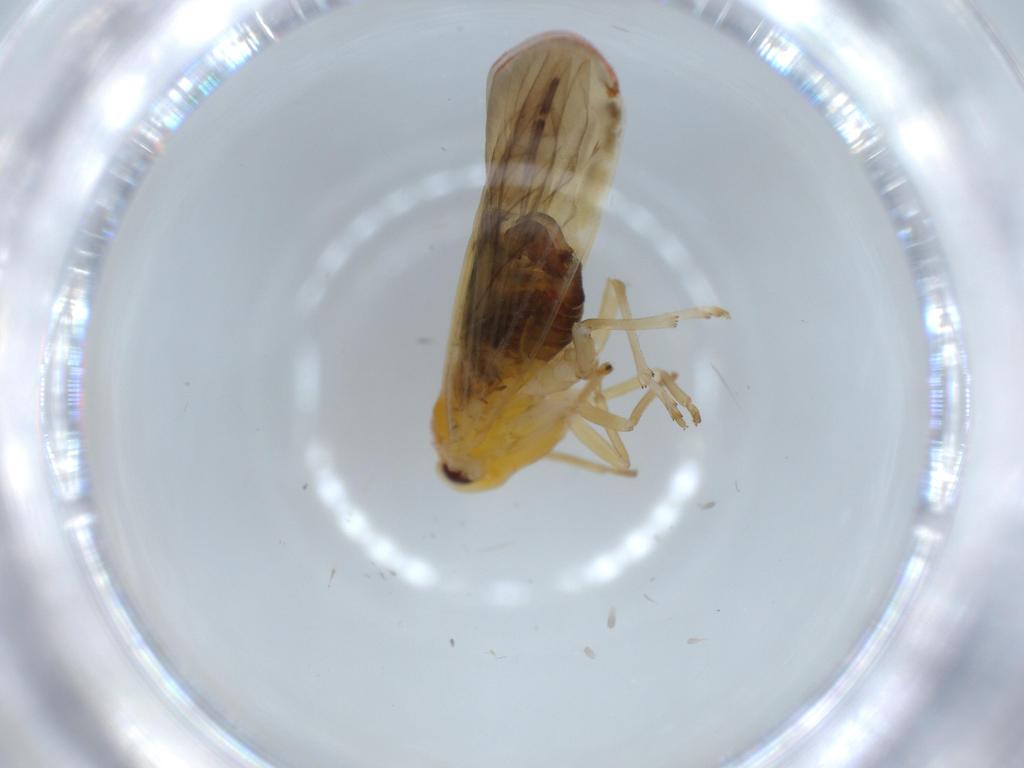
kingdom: Animalia
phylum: Arthropoda
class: Insecta
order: Hemiptera
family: Derbidae
